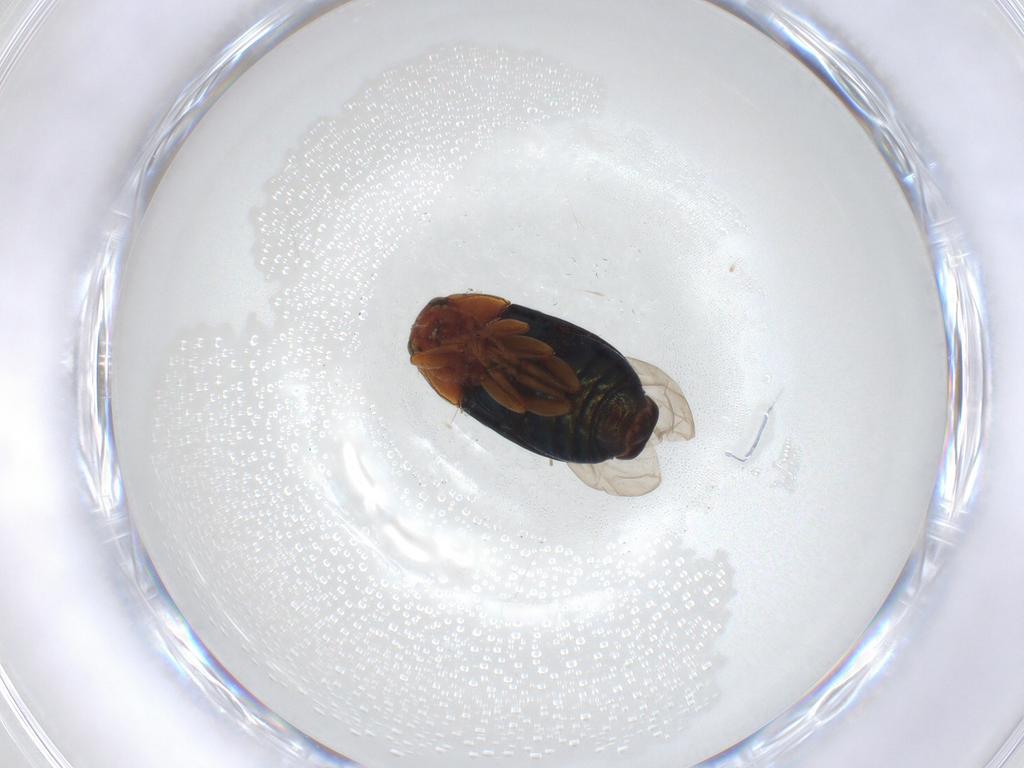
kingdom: Animalia
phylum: Arthropoda
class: Insecta
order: Coleoptera
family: Chrysomelidae
